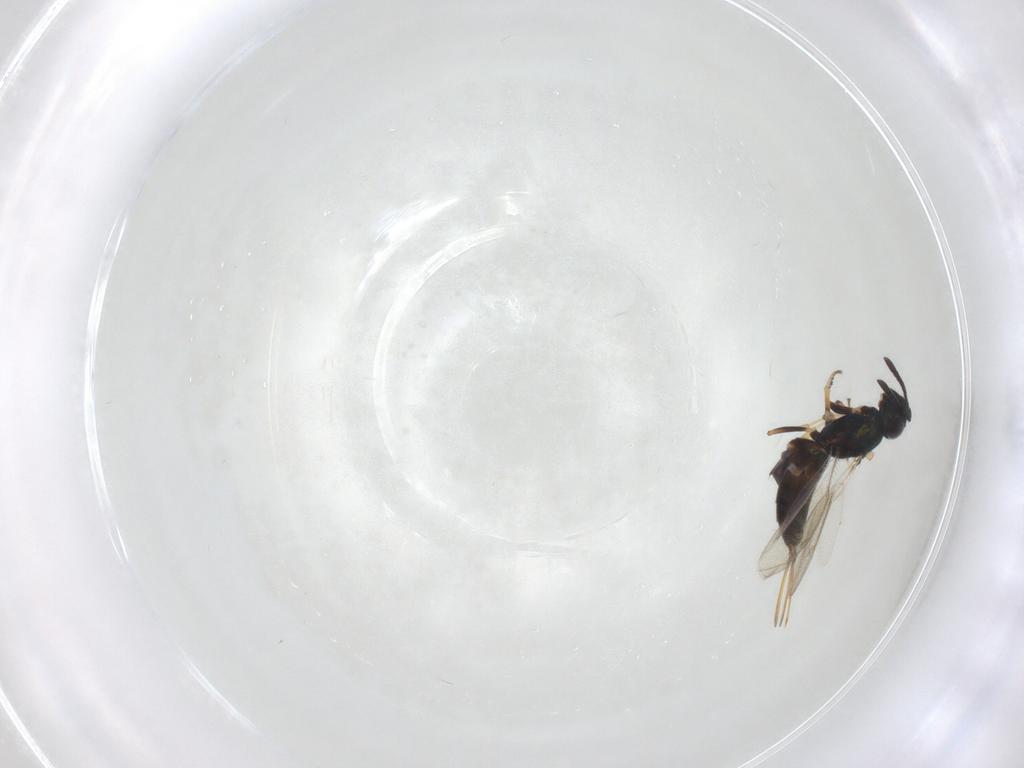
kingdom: Animalia
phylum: Arthropoda
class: Insecta
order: Hymenoptera
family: Eupelmidae
